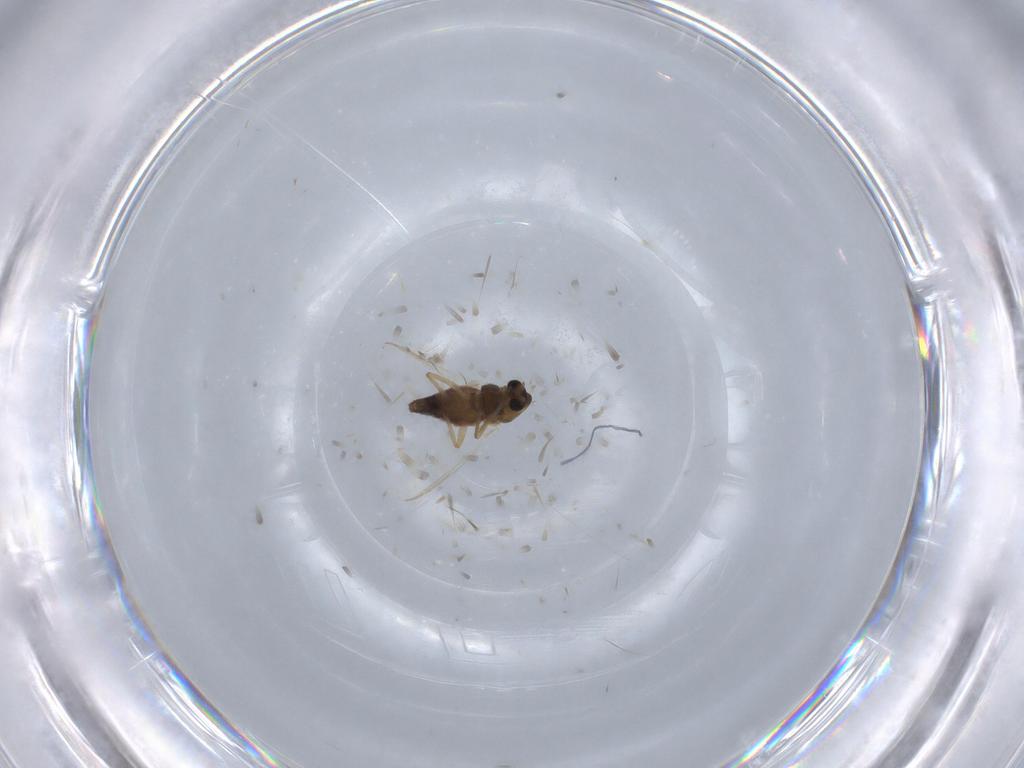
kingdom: Animalia
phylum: Arthropoda
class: Insecta
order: Diptera
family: Cecidomyiidae
